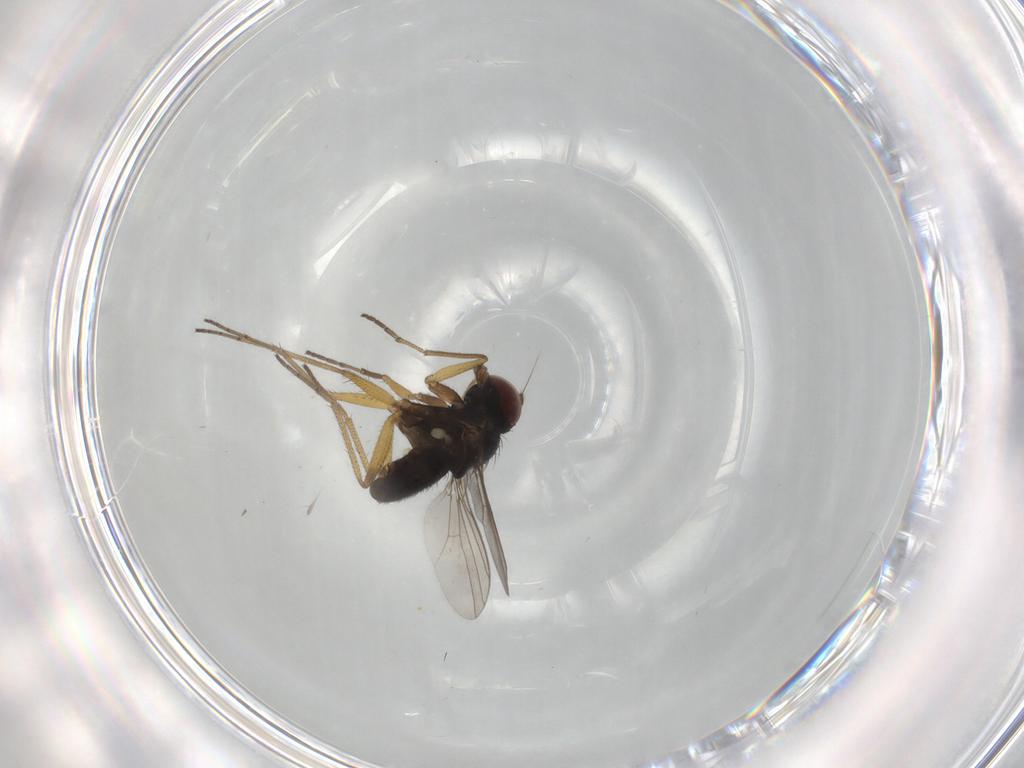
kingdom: Animalia
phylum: Arthropoda
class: Insecta
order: Diptera
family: Dolichopodidae
